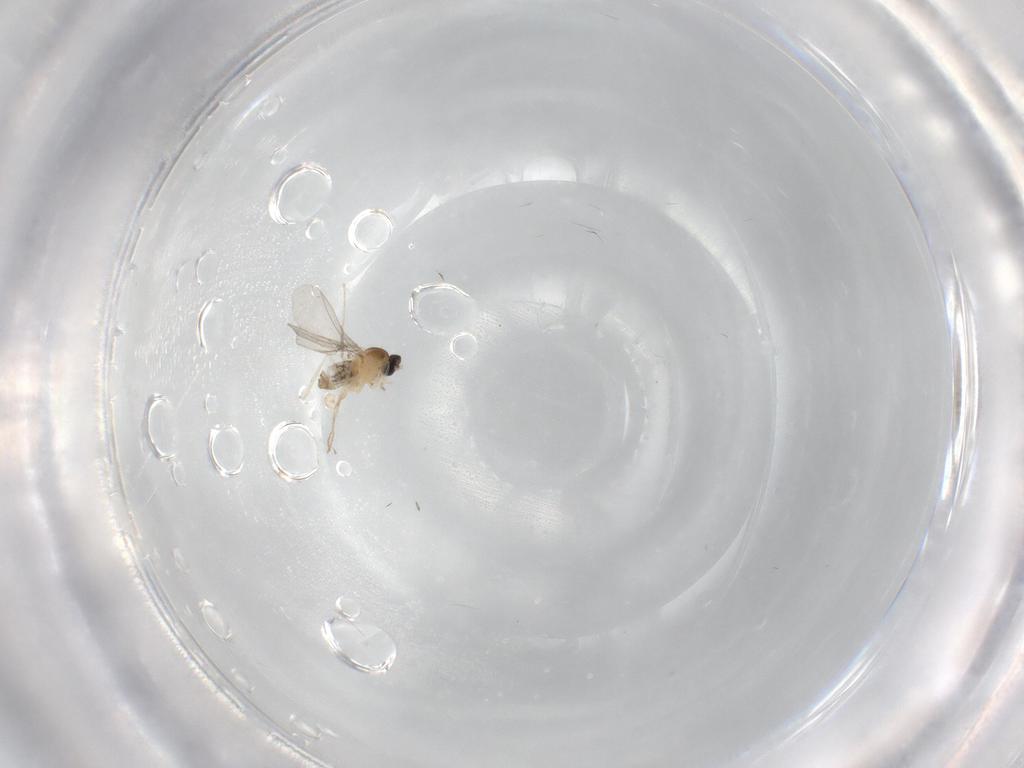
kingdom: Animalia
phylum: Arthropoda
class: Insecta
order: Diptera
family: Cecidomyiidae
